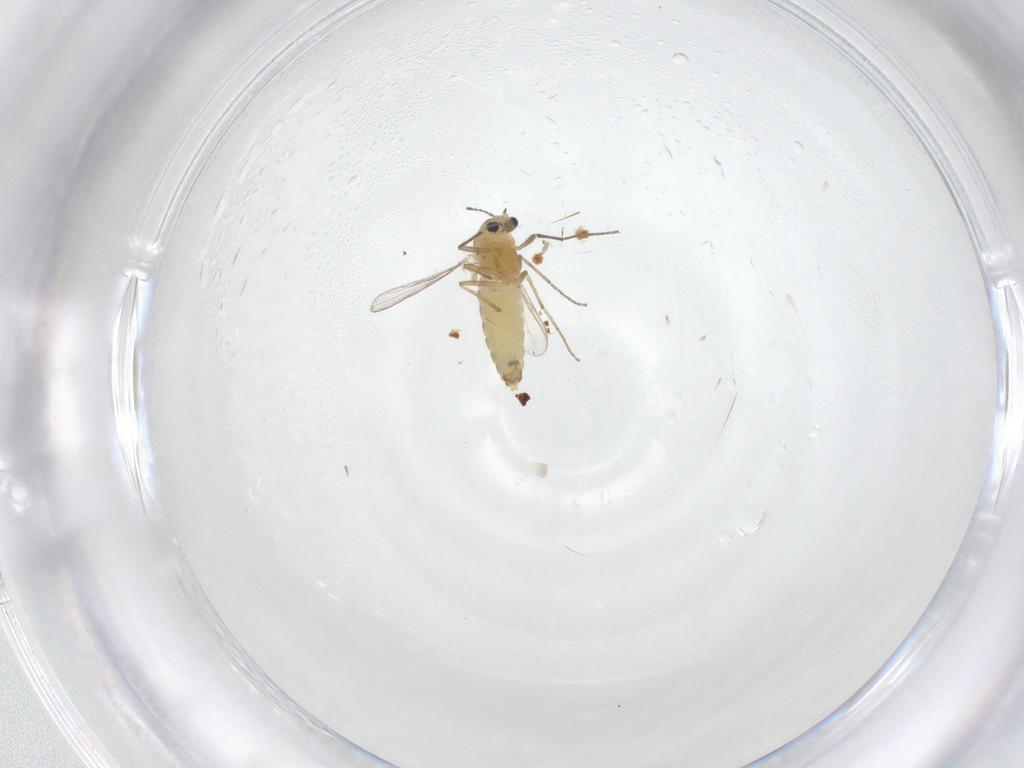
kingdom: Animalia
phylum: Arthropoda
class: Insecta
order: Diptera
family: Chironomidae
